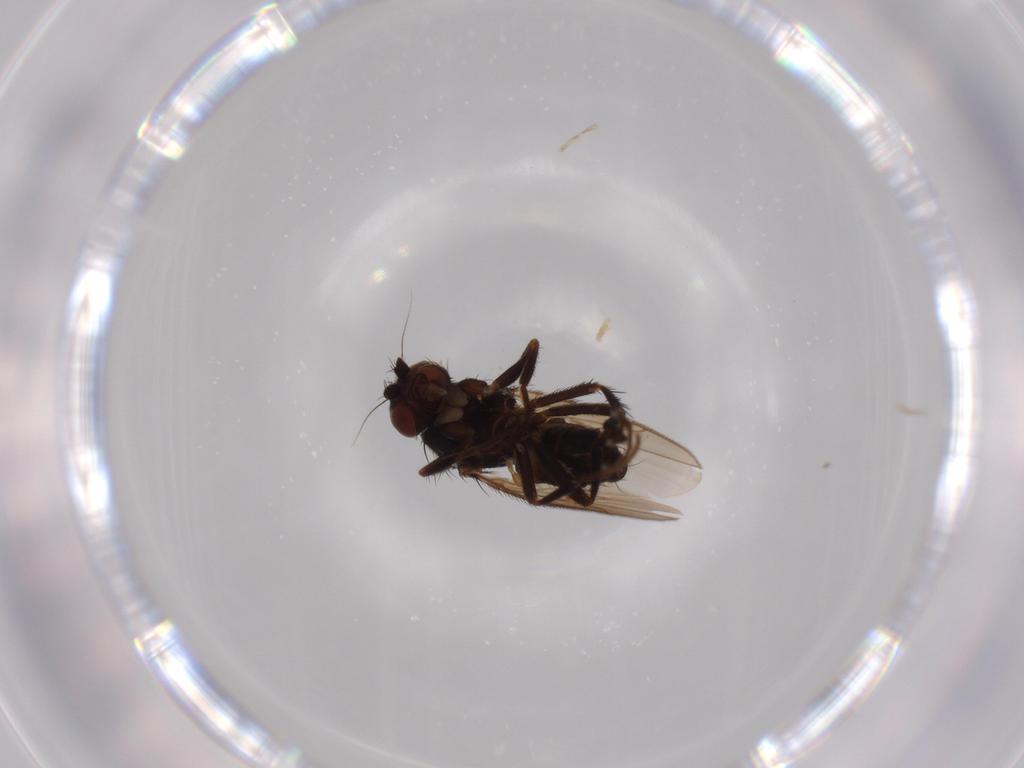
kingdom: Animalia
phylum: Arthropoda
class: Insecta
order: Diptera
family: Sphaeroceridae
